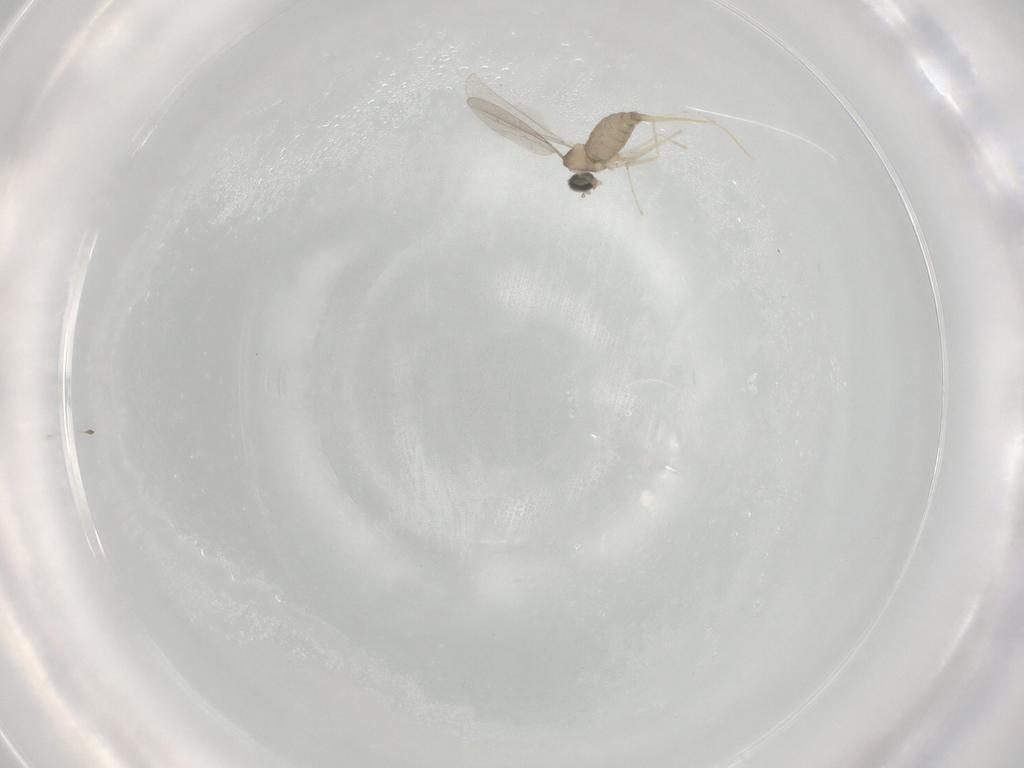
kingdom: Animalia
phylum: Arthropoda
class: Insecta
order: Diptera
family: Cecidomyiidae
